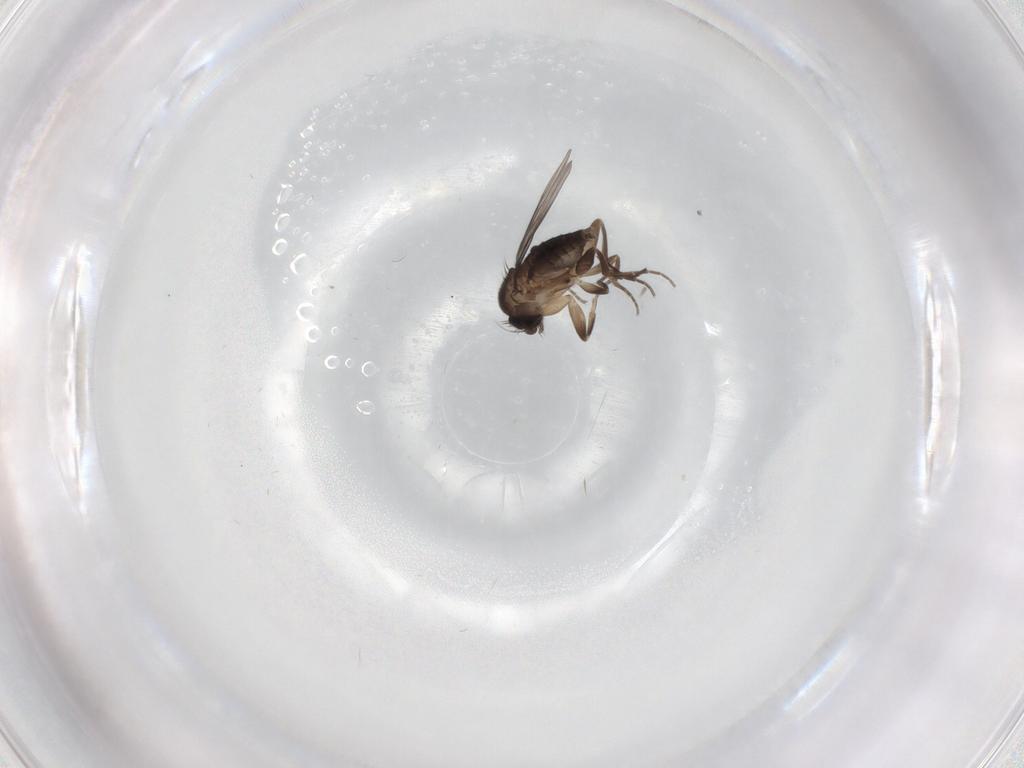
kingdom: Animalia
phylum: Arthropoda
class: Insecta
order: Diptera
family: Phoridae
